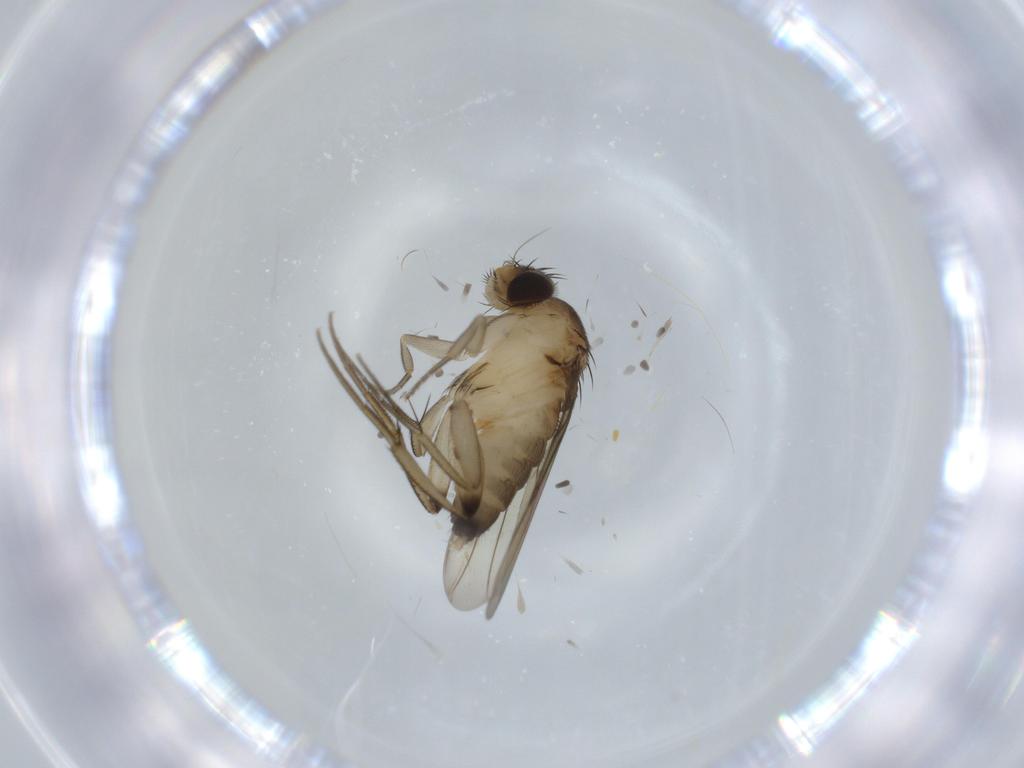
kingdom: Animalia
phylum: Arthropoda
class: Insecta
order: Diptera
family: Phoridae
